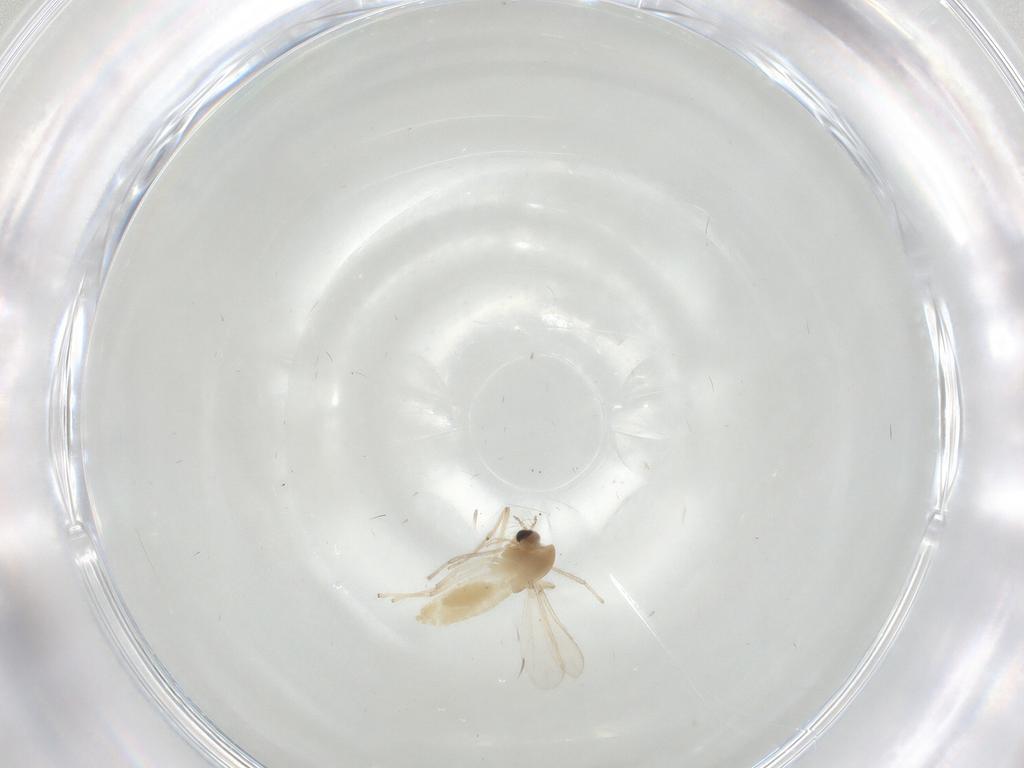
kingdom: Animalia
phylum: Arthropoda
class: Insecta
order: Diptera
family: Chironomidae
